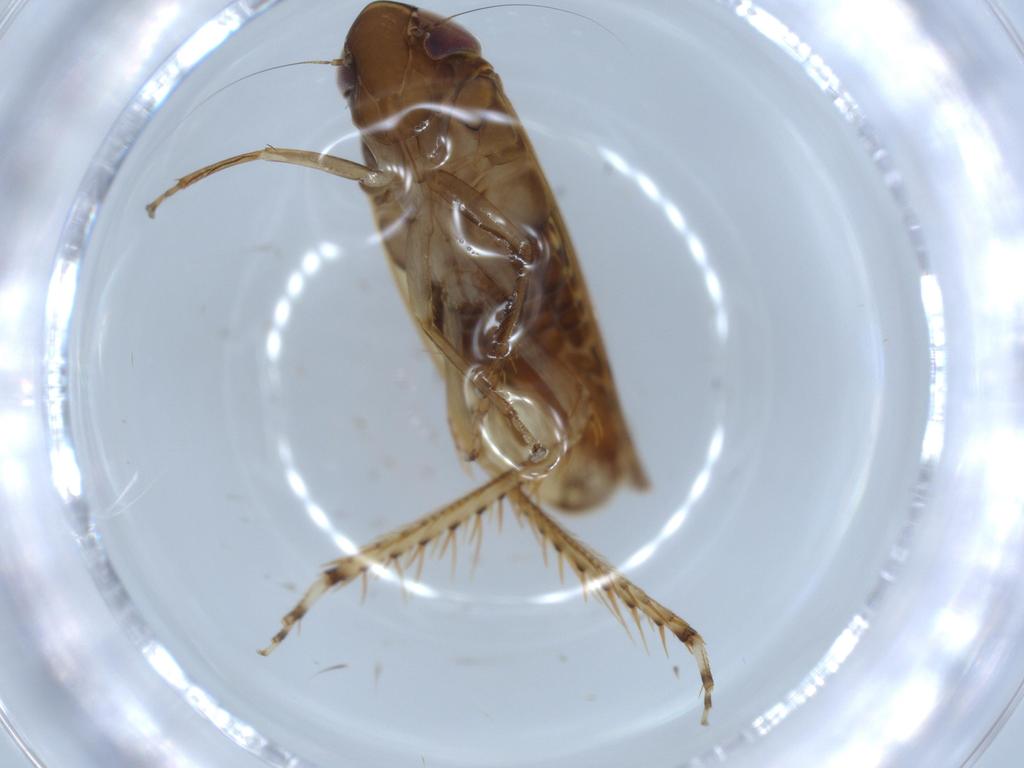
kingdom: Animalia
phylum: Arthropoda
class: Insecta
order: Hemiptera
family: Cicadellidae
